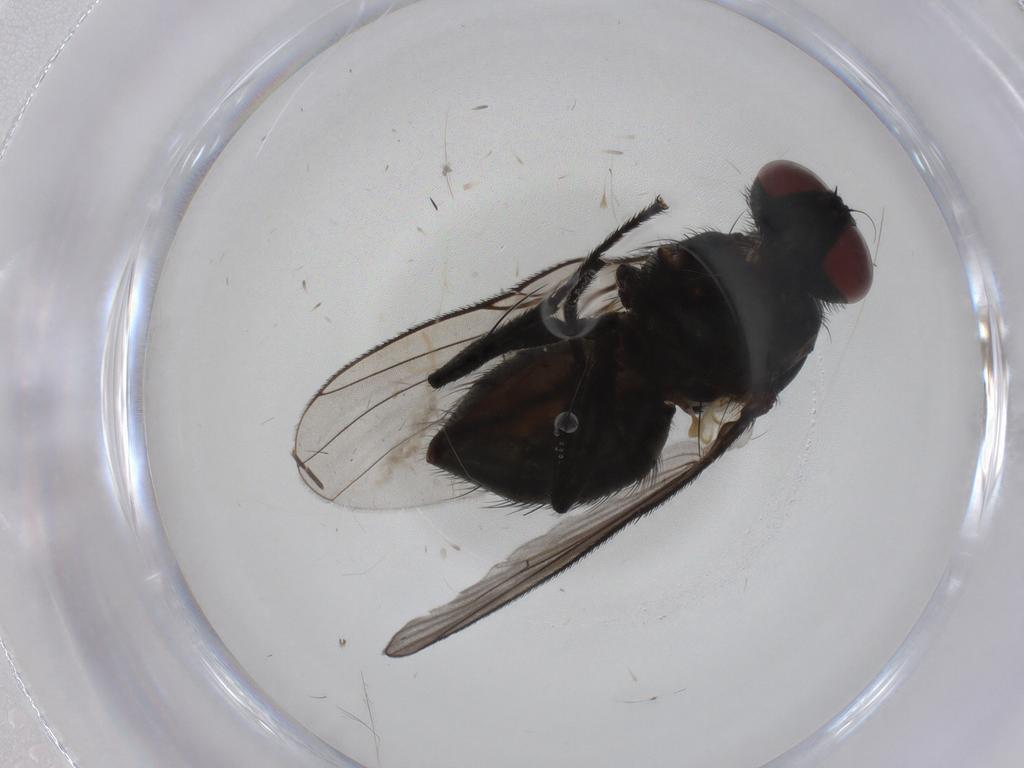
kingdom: Animalia
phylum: Arthropoda
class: Insecta
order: Diptera
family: Muscidae
